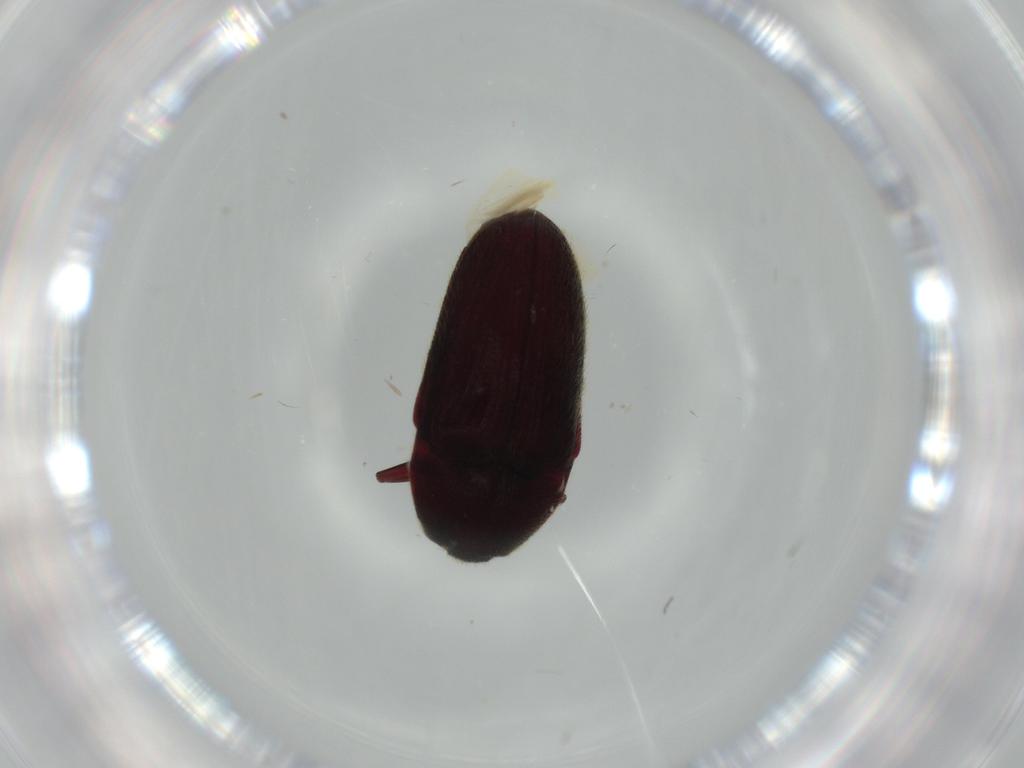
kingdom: Animalia
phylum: Arthropoda
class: Insecta
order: Coleoptera
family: Throscidae
